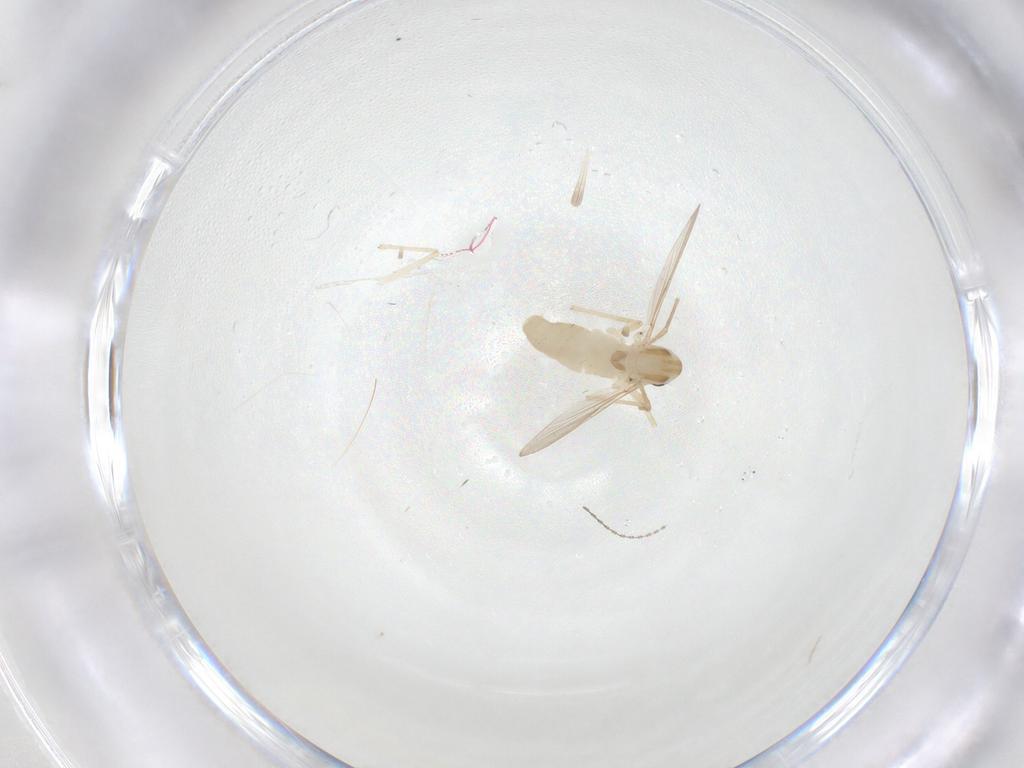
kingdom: Animalia
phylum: Arthropoda
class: Insecta
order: Diptera
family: Chironomidae
